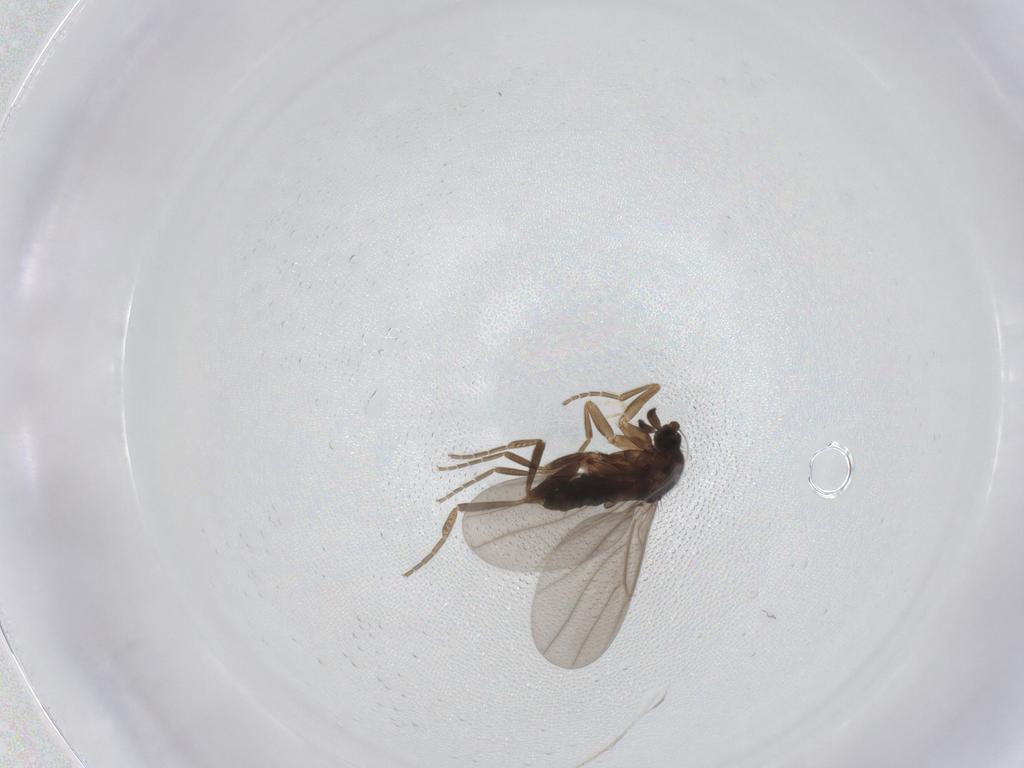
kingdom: Animalia
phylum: Arthropoda
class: Insecta
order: Diptera
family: Phoridae
